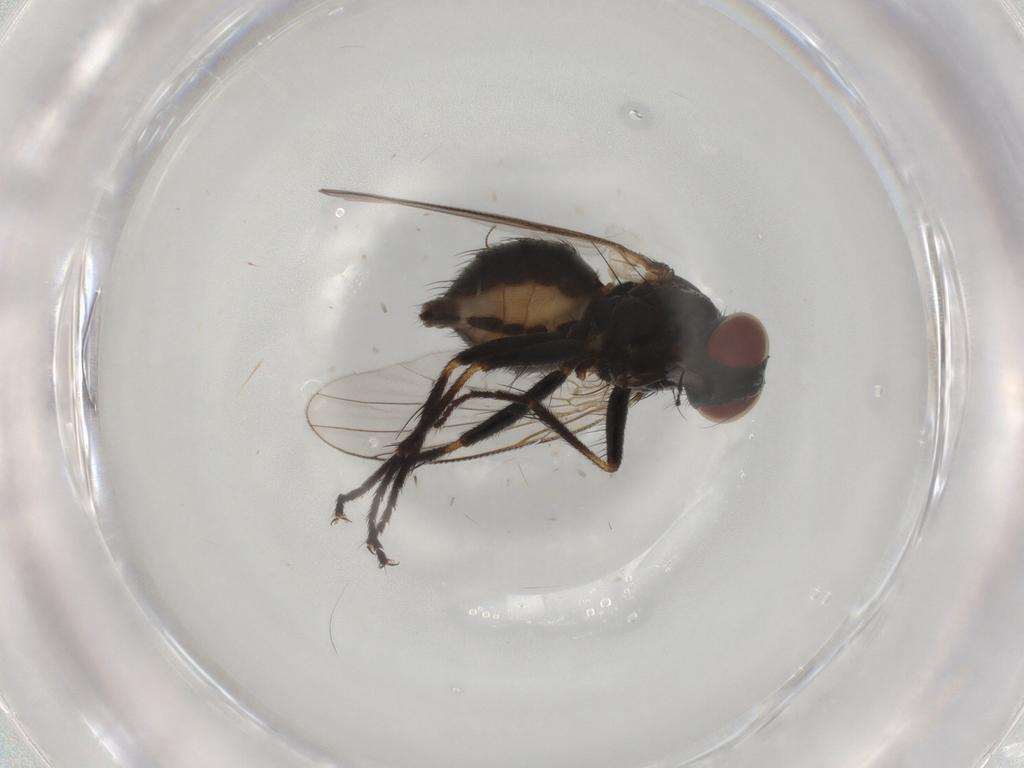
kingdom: Animalia
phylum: Arthropoda
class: Insecta
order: Diptera
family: Muscidae
